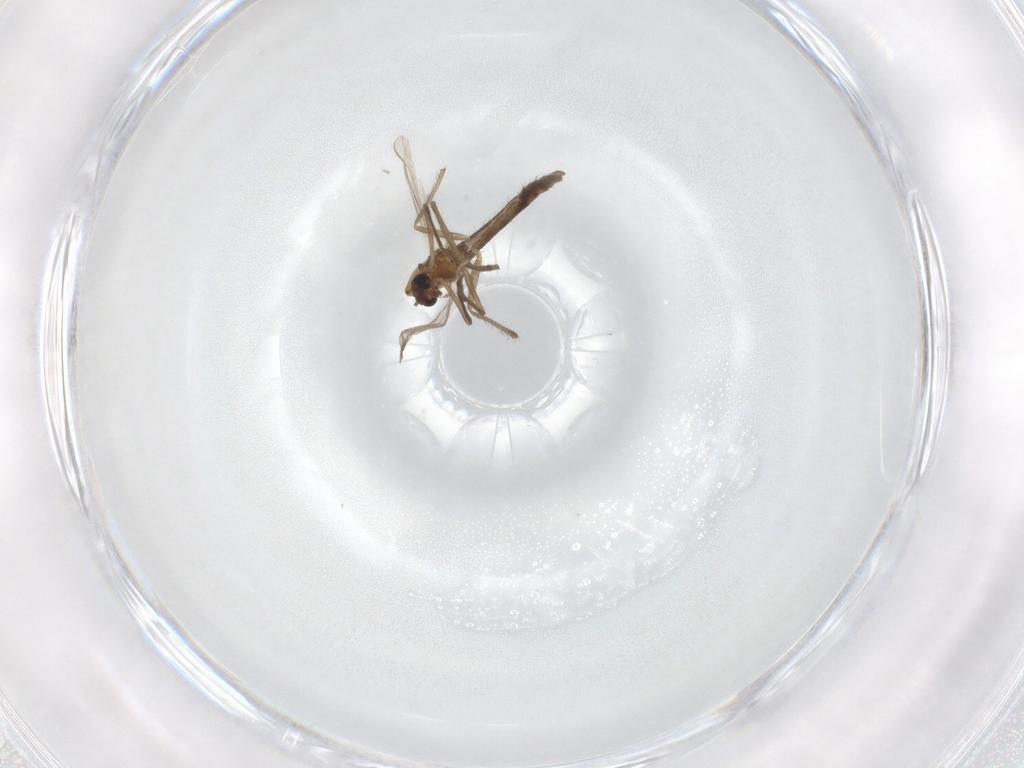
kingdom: Animalia
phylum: Arthropoda
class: Insecta
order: Diptera
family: Chironomidae
